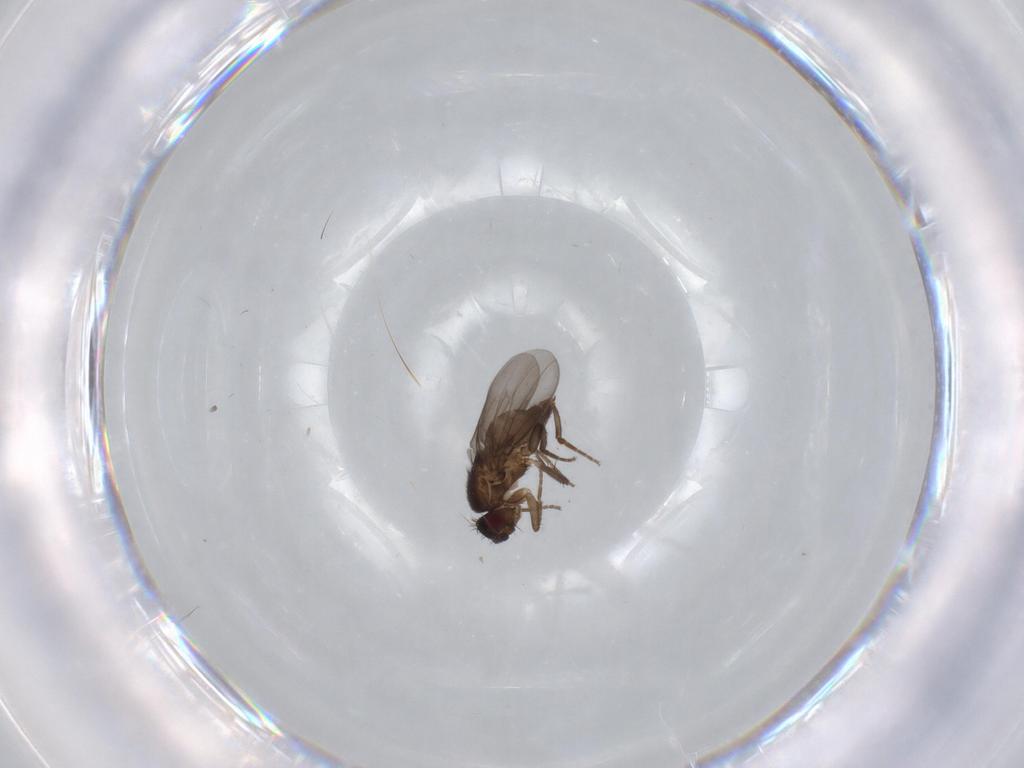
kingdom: Animalia
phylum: Arthropoda
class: Insecta
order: Diptera
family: Sphaeroceridae
